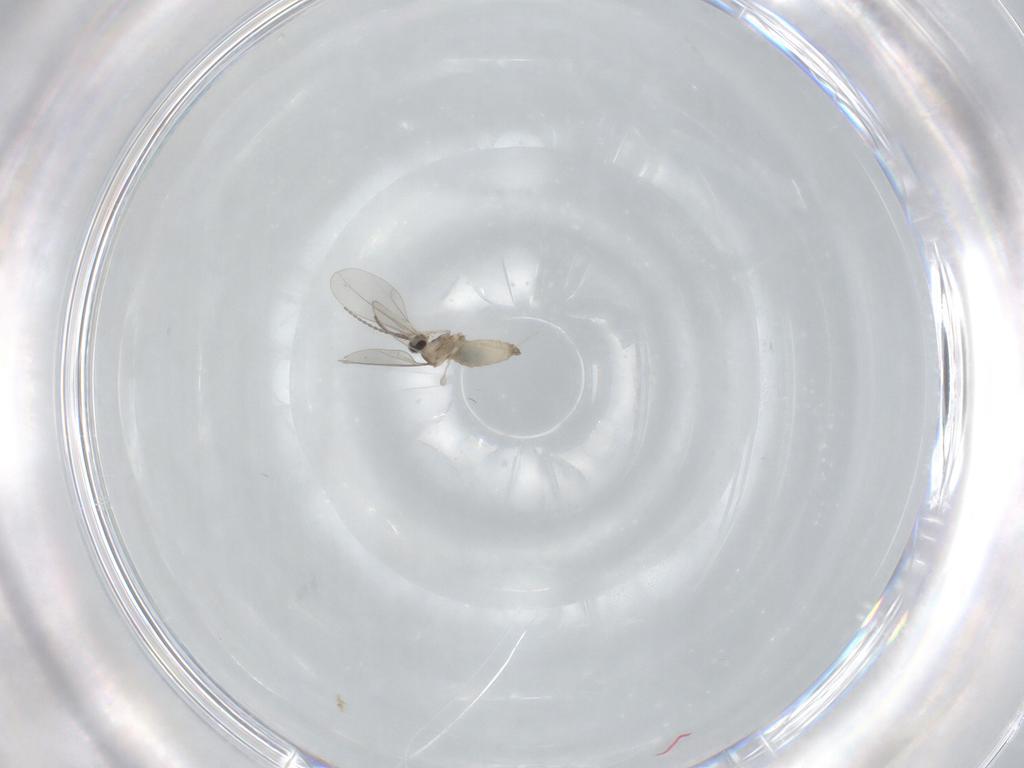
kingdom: Animalia
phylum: Arthropoda
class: Insecta
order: Diptera
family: Cecidomyiidae
